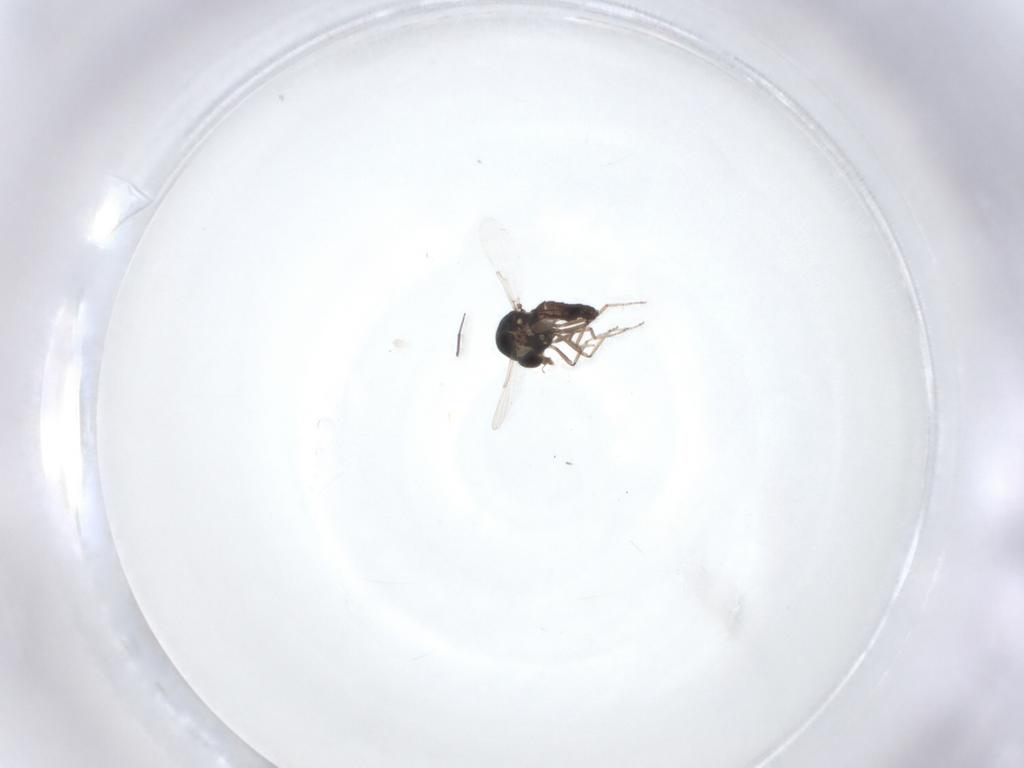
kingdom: Animalia
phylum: Arthropoda
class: Insecta
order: Diptera
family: Ceratopogonidae
